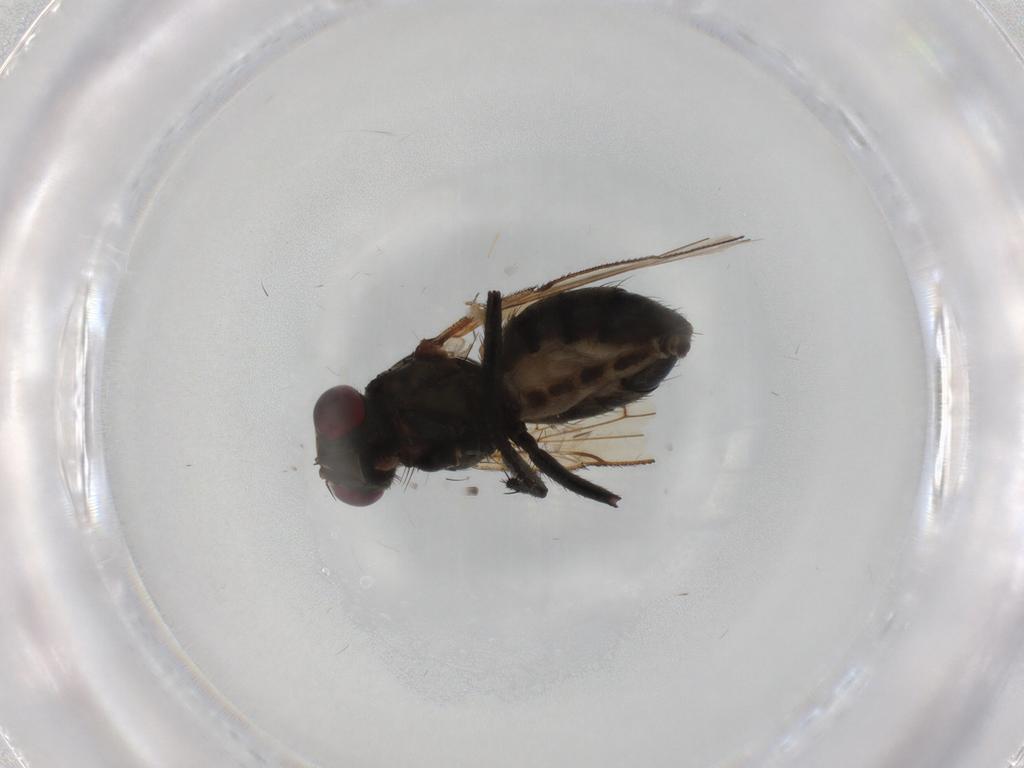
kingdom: Animalia
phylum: Arthropoda
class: Insecta
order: Diptera
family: Muscidae
